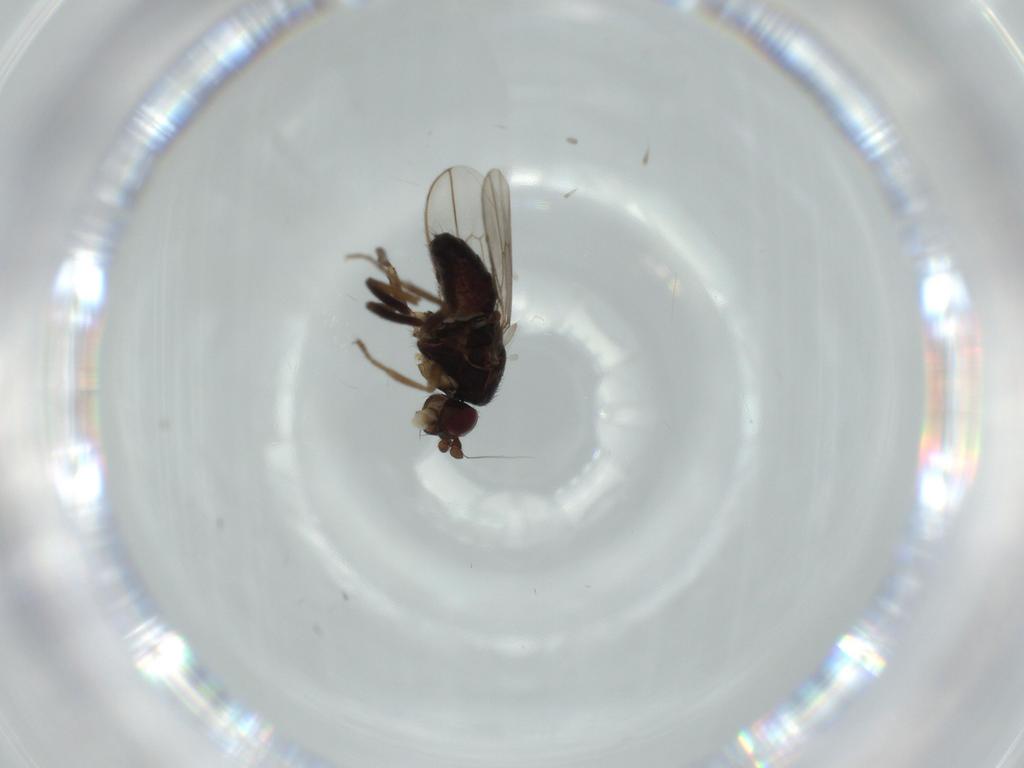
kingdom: Animalia
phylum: Arthropoda
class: Insecta
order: Diptera
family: Sphaeroceridae
